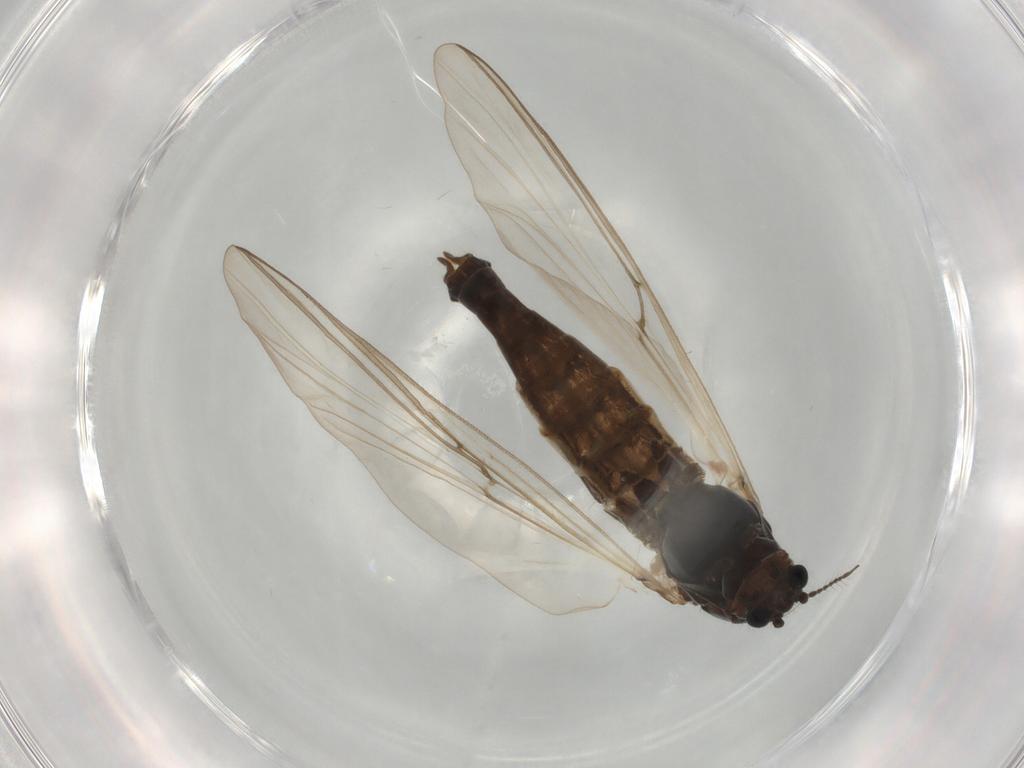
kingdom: Animalia
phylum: Arthropoda
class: Insecta
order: Diptera
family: Chironomidae
